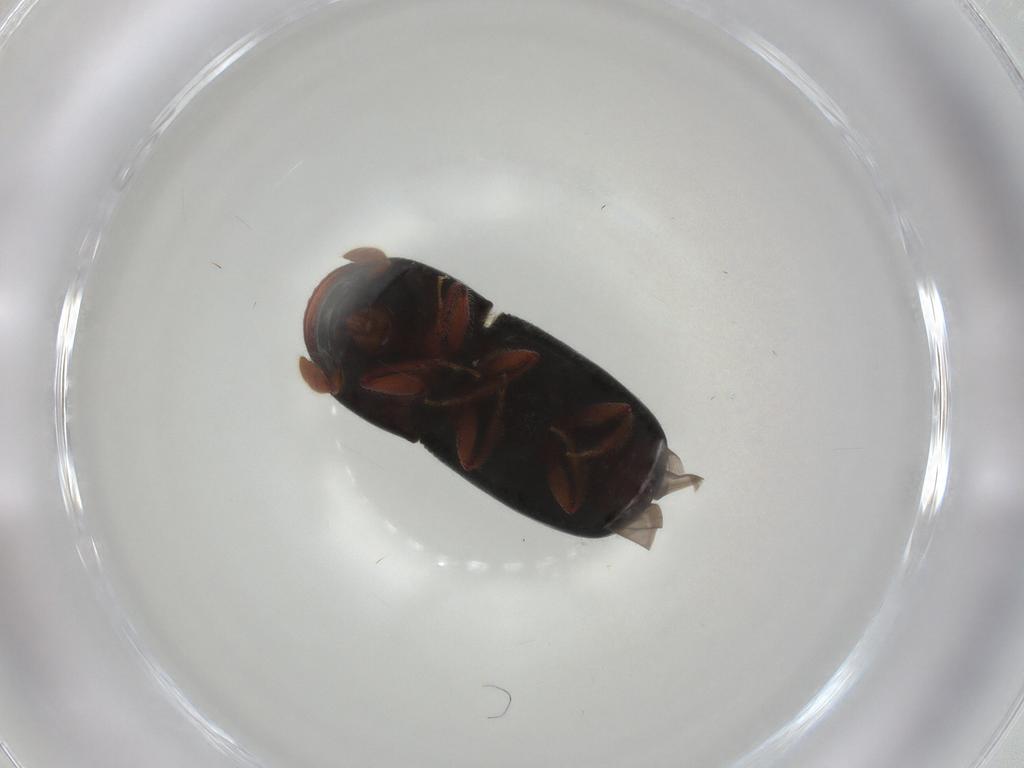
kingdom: Animalia
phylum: Arthropoda
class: Insecta
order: Coleoptera
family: Curculionidae
